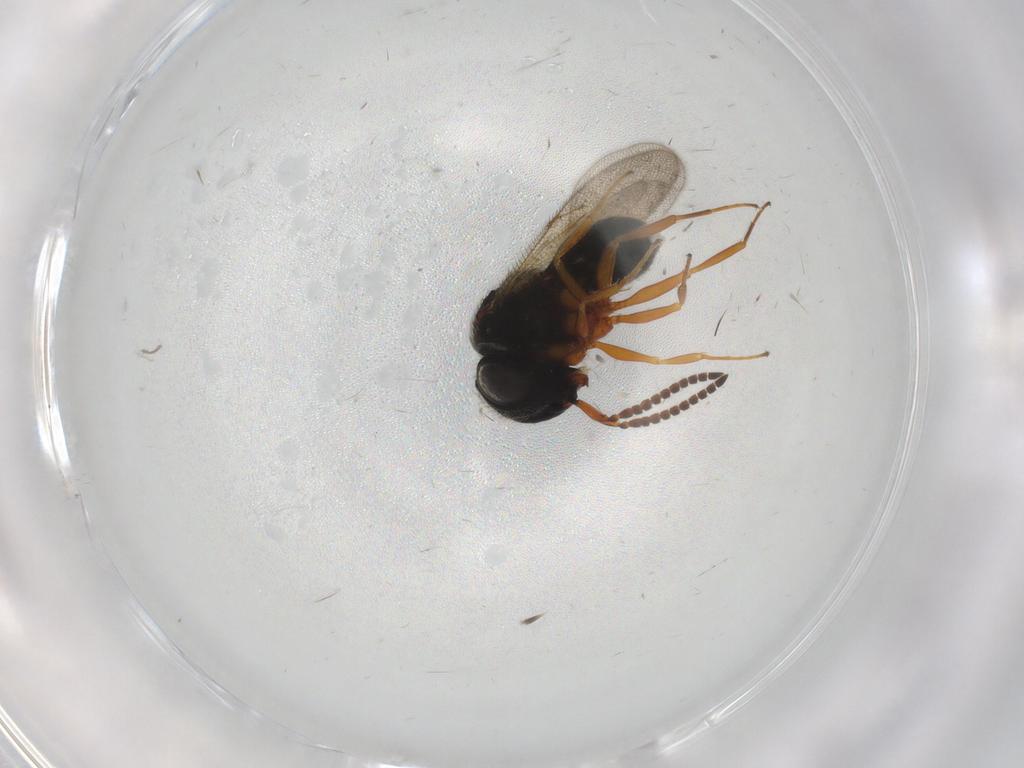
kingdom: Animalia
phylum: Arthropoda
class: Insecta
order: Hymenoptera
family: Scelionidae
